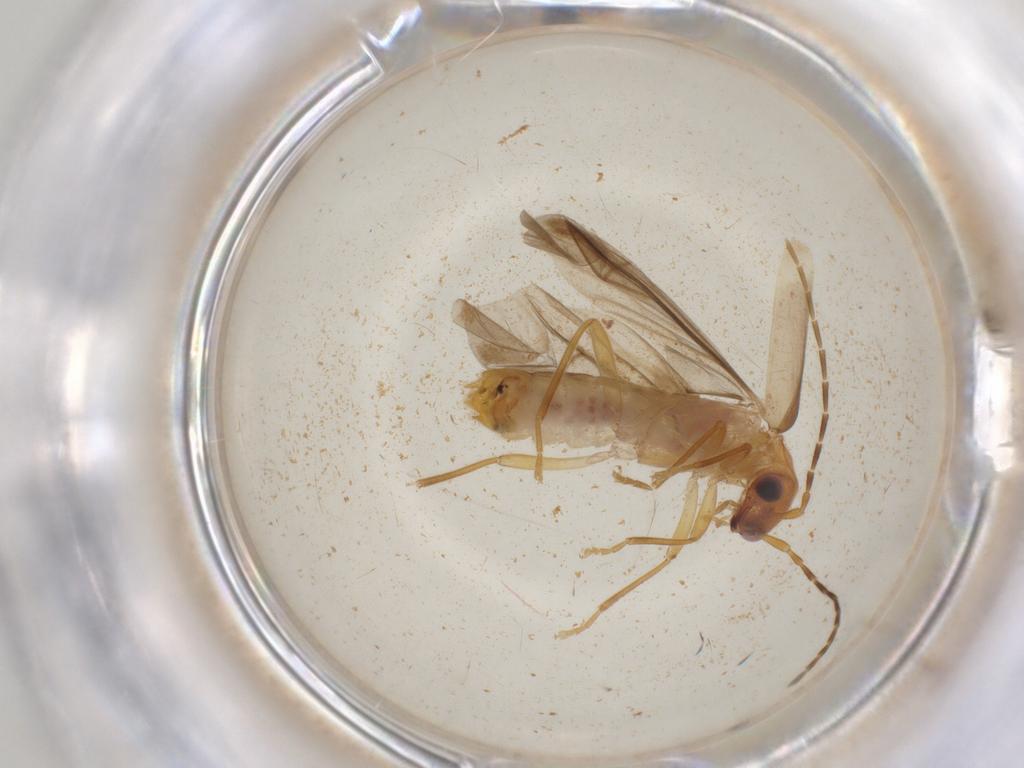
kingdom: Animalia
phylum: Arthropoda
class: Insecta
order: Coleoptera
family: Cantharidae
